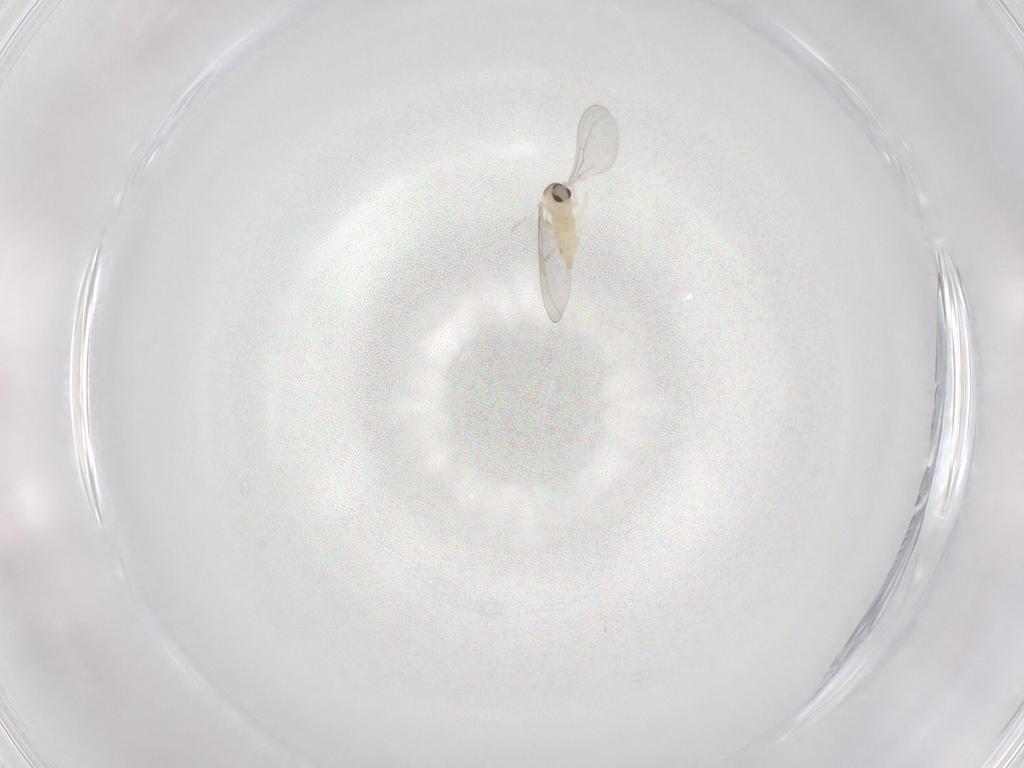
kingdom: Animalia
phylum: Arthropoda
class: Insecta
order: Diptera
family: Cecidomyiidae
